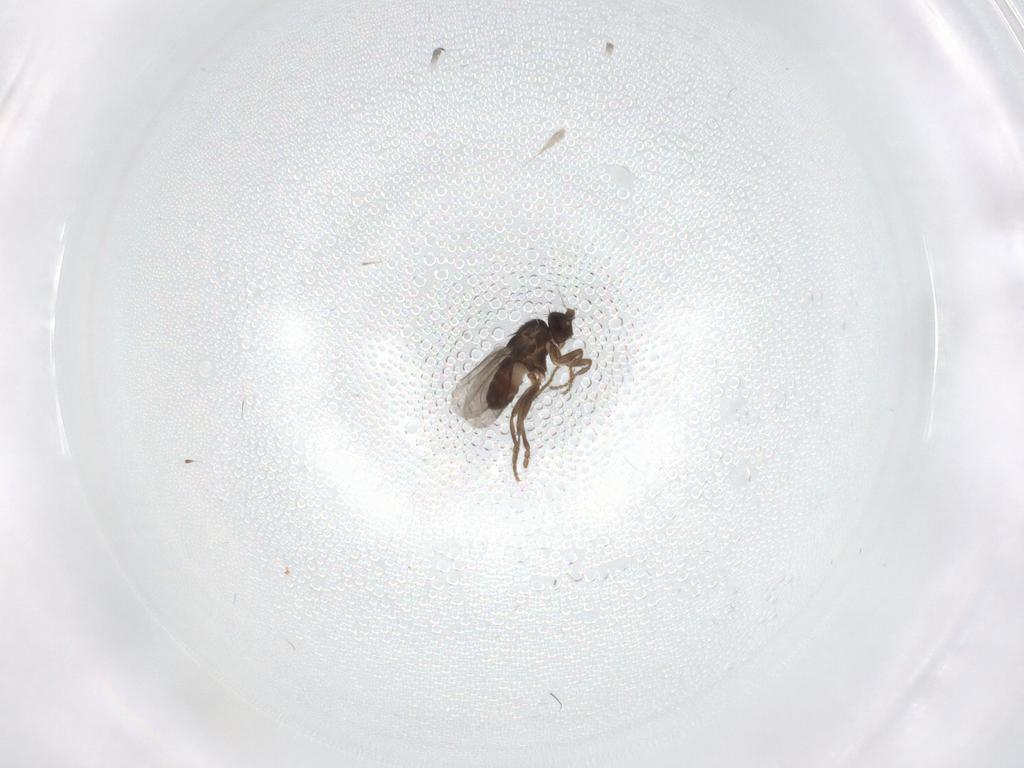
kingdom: Animalia
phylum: Arthropoda
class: Insecta
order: Diptera
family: Sphaeroceridae
